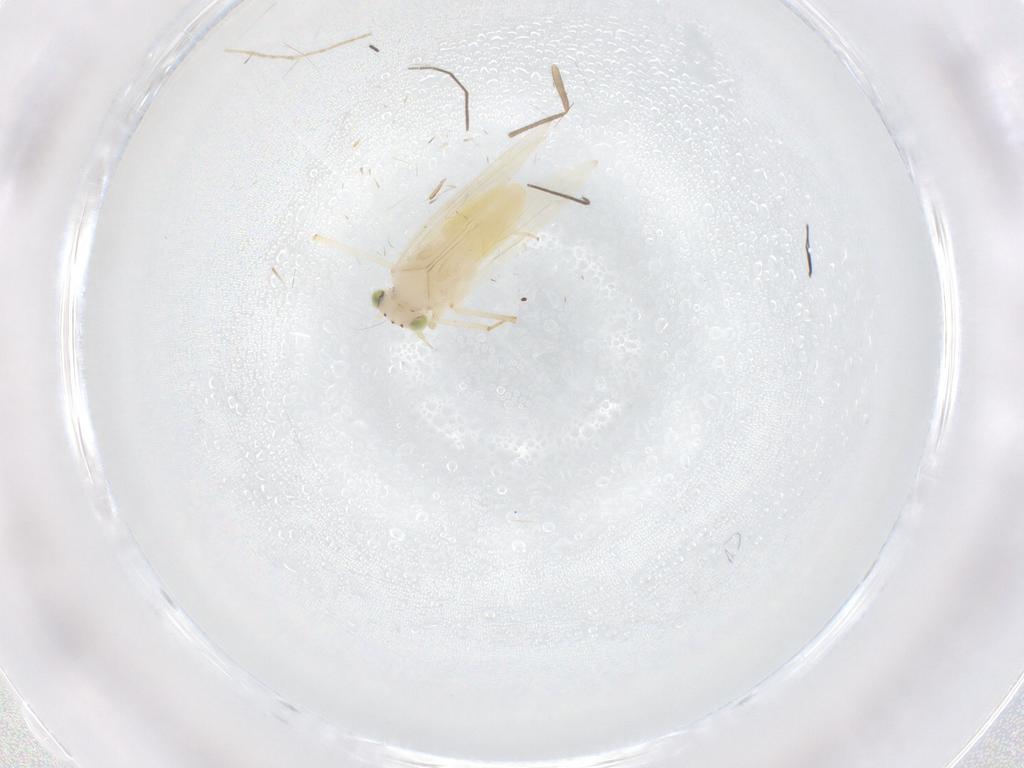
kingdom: Animalia
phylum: Arthropoda
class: Insecta
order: Psocodea
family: Lepidopsocidae
